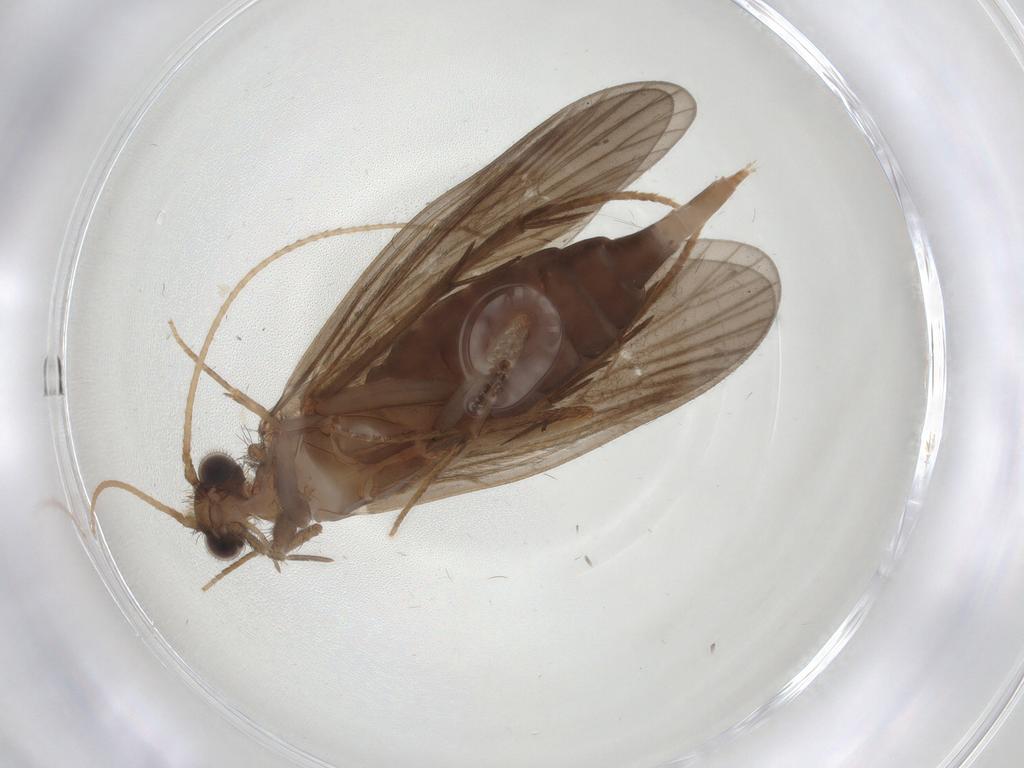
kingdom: Animalia
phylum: Arthropoda
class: Insecta
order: Trichoptera
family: Philopotamidae
